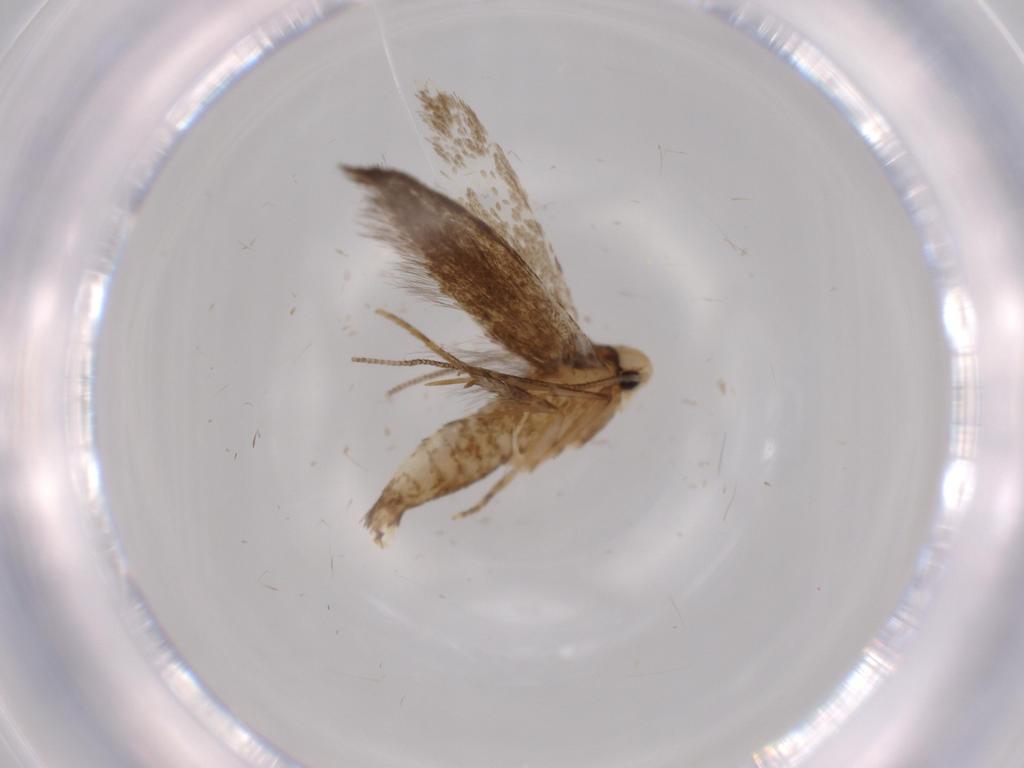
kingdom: Animalia
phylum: Arthropoda
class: Insecta
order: Lepidoptera
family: Tineidae
